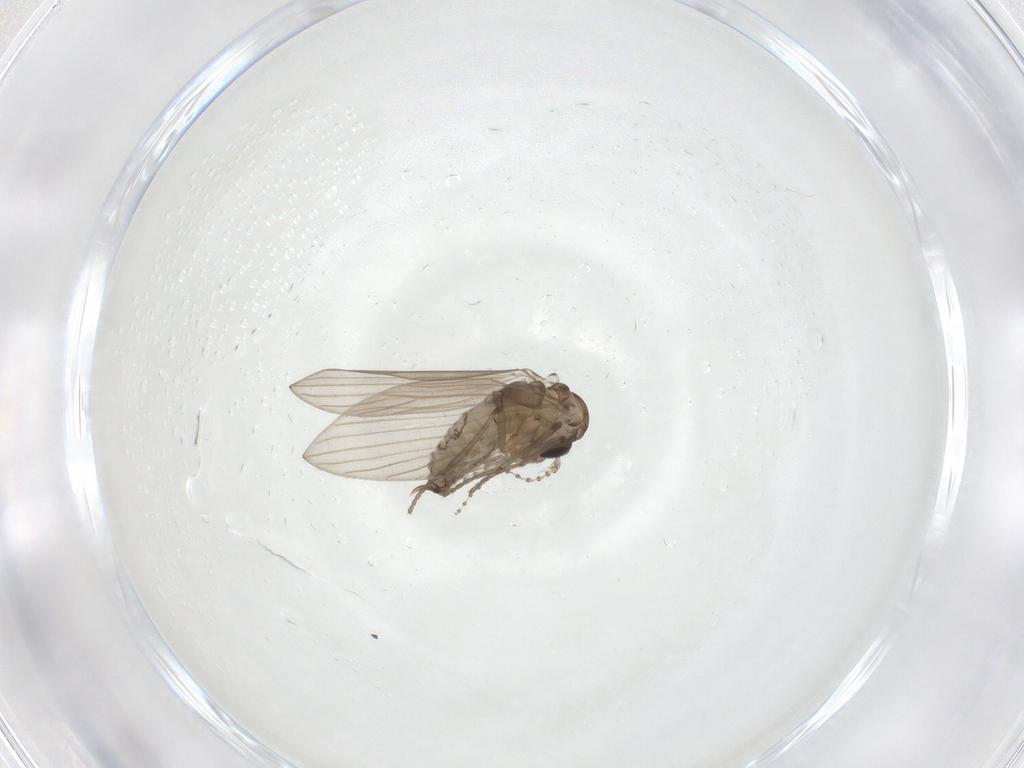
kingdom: Animalia
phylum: Arthropoda
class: Insecta
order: Diptera
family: Psychodidae
